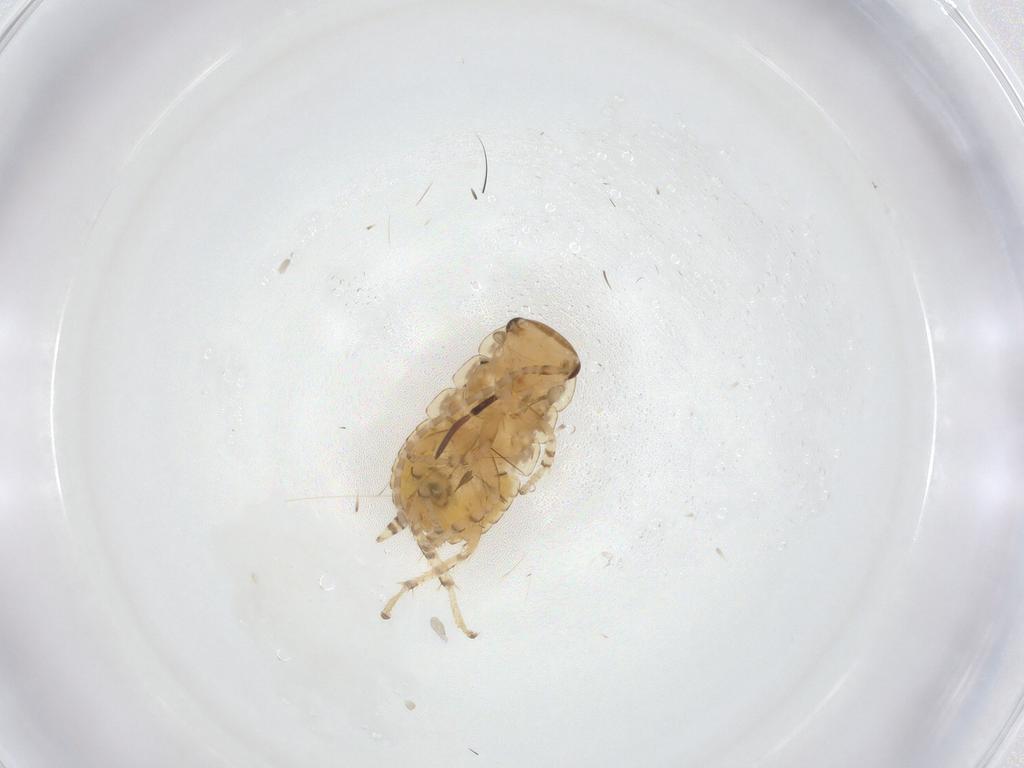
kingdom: Animalia
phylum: Arthropoda
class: Insecta
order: Blattodea
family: Ectobiidae
